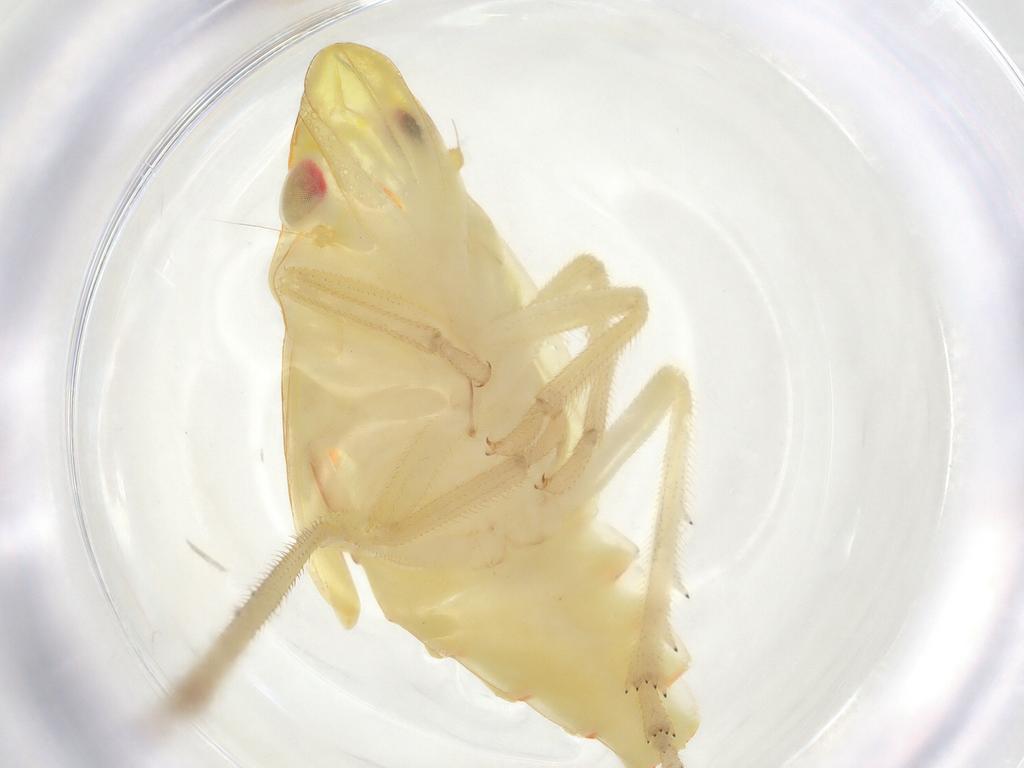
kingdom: Animalia
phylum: Arthropoda
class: Insecta
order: Hemiptera
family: Tropiduchidae
